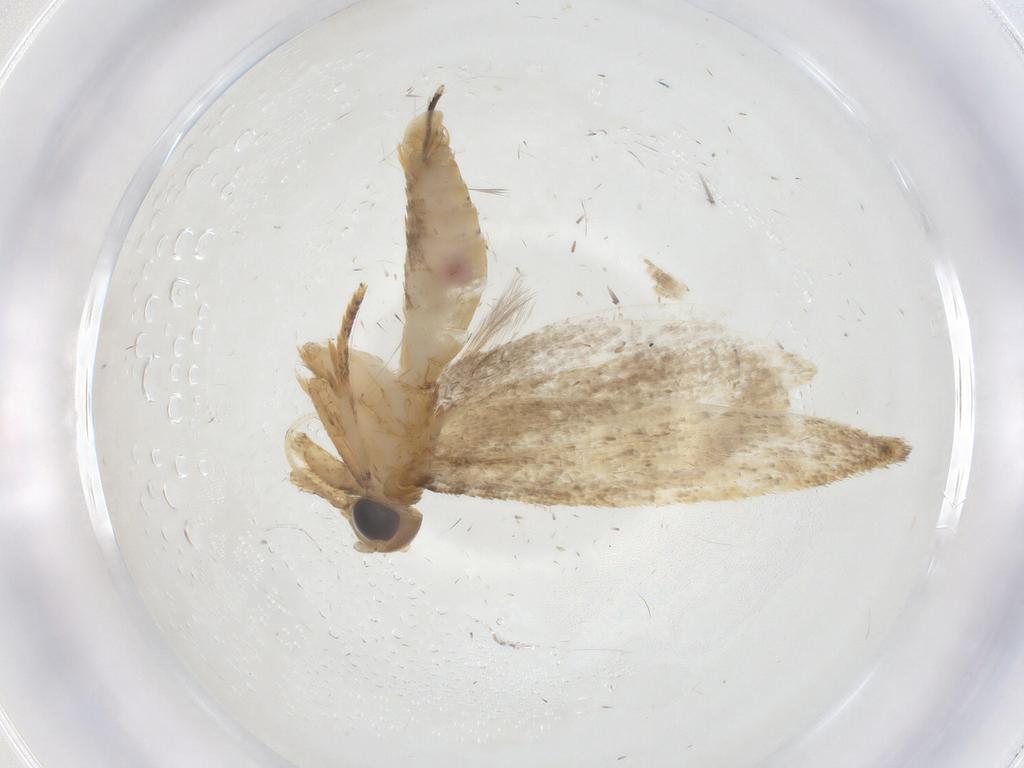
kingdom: Animalia
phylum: Arthropoda
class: Insecta
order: Lepidoptera
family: Oecophoridae
